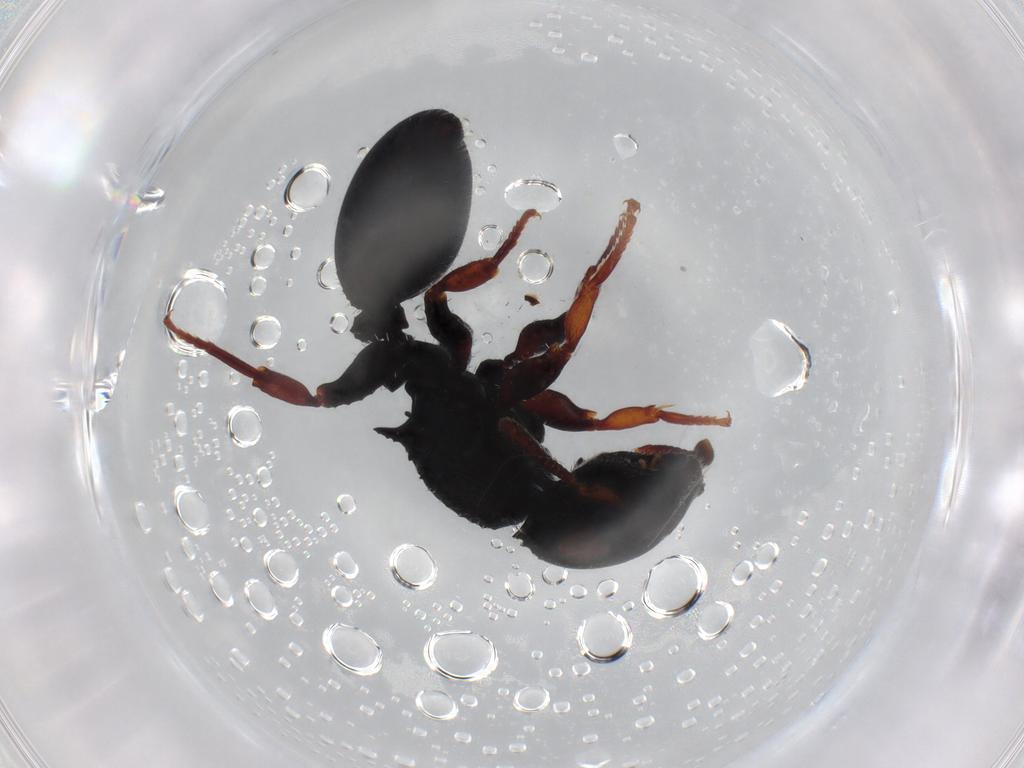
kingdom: Animalia
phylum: Arthropoda
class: Insecta
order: Hymenoptera
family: Formicidae
